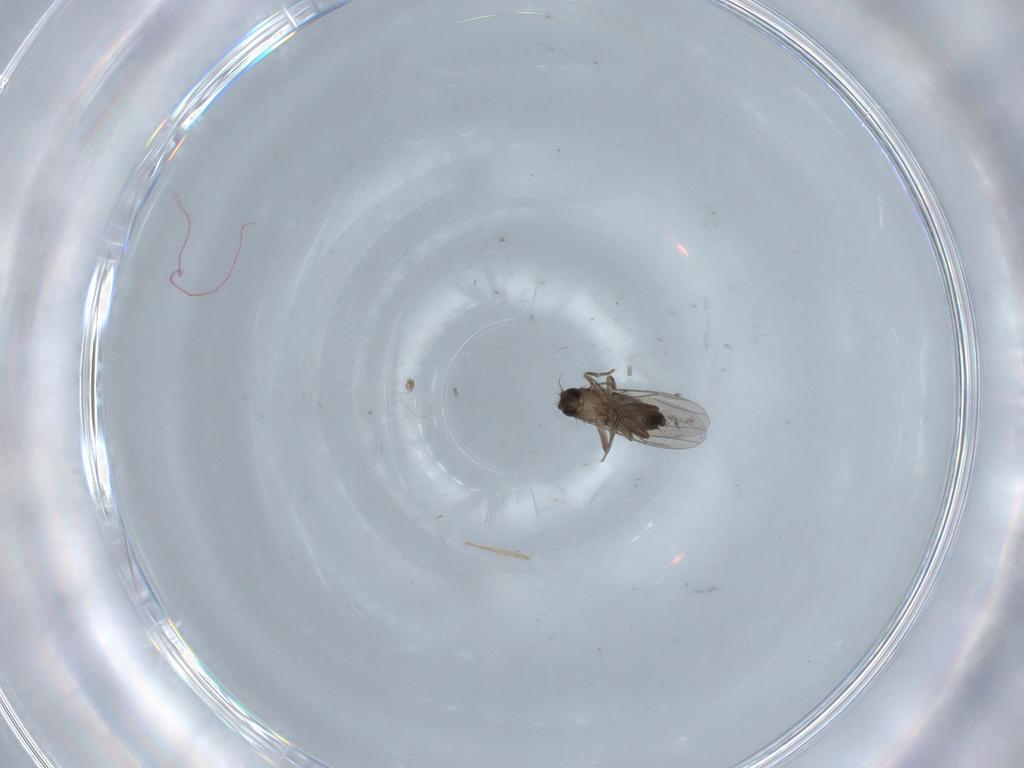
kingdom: Animalia
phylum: Arthropoda
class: Insecta
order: Diptera
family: Phoridae
